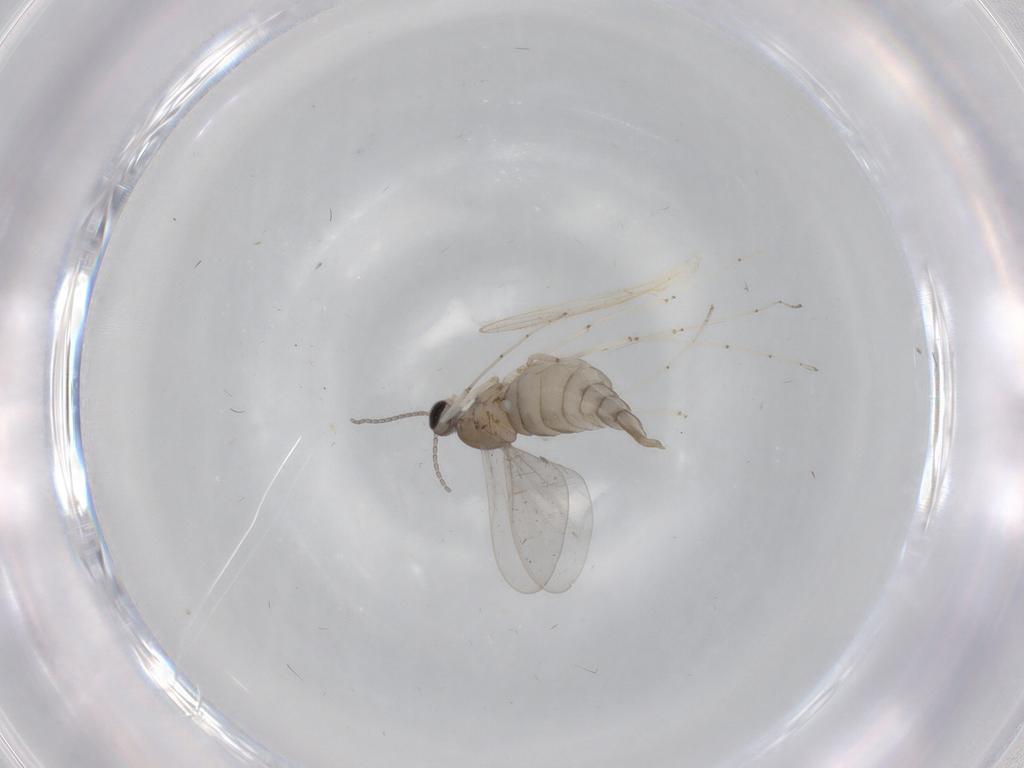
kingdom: Animalia
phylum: Arthropoda
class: Insecta
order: Diptera
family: Cecidomyiidae
